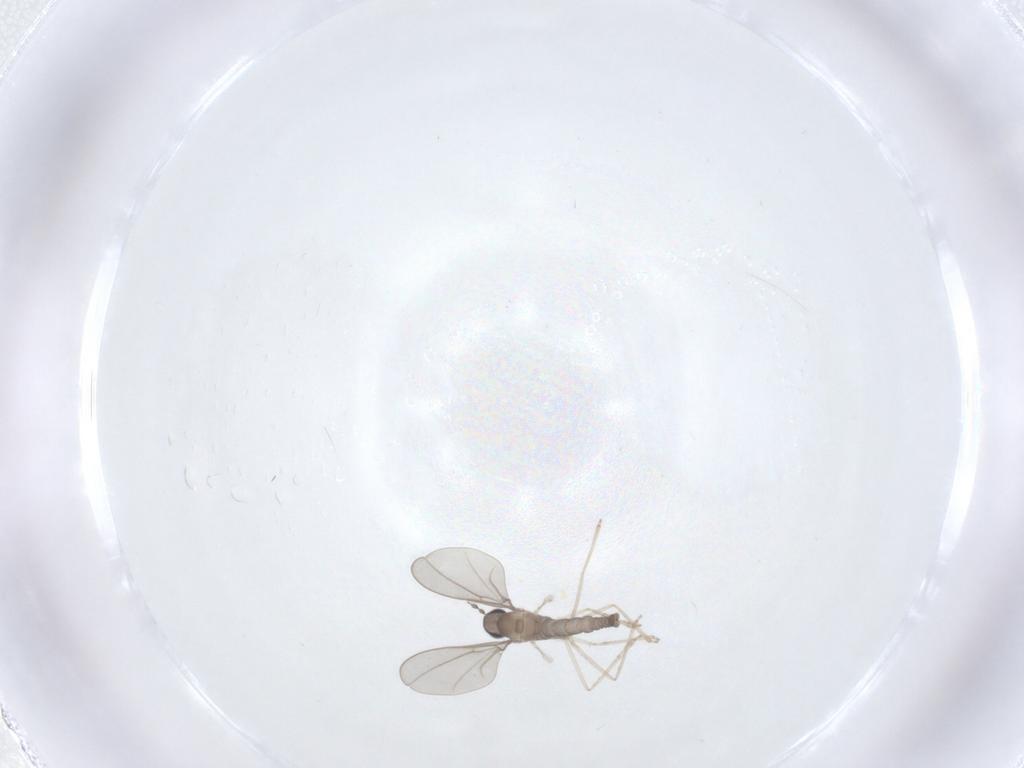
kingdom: Animalia
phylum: Arthropoda
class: Insecta
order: Diptera
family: Cecidomyiidae
